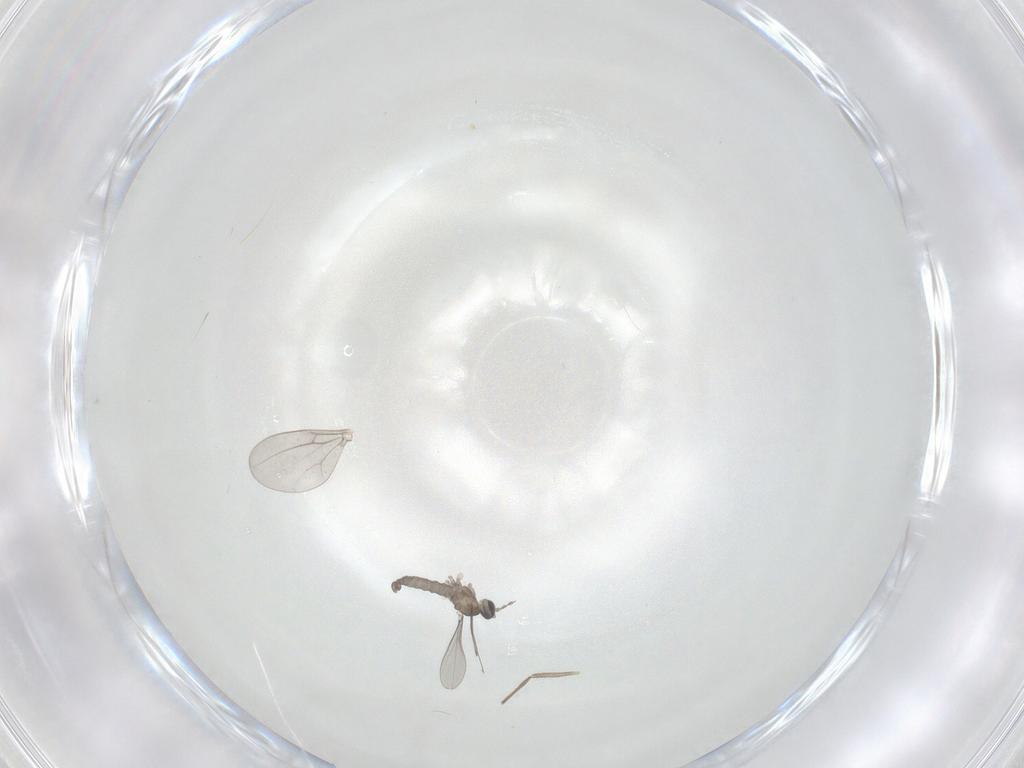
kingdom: Animalia
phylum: Arthropoda
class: Insecta
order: Diptera
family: Cecidomyiidae
